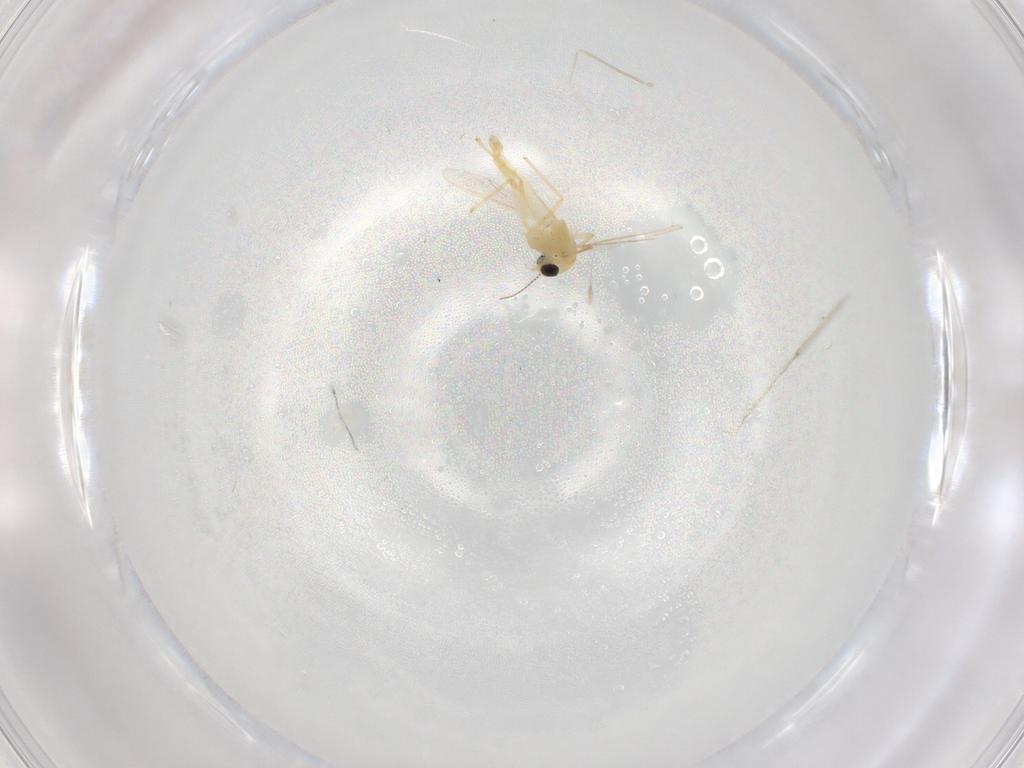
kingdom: Animalia
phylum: Arthropoda
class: Insecta
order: Diptera
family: Chironomidae
